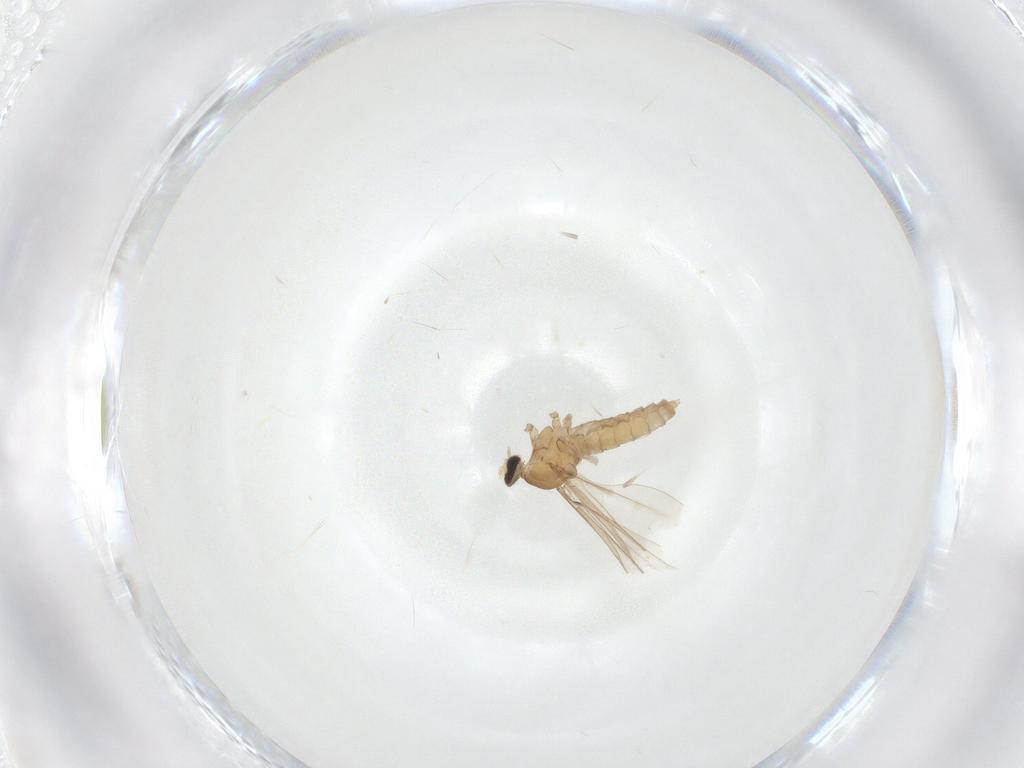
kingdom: Animalia
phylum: Arthropoda
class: Insecta
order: Diptera
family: Cecidomyiidae
